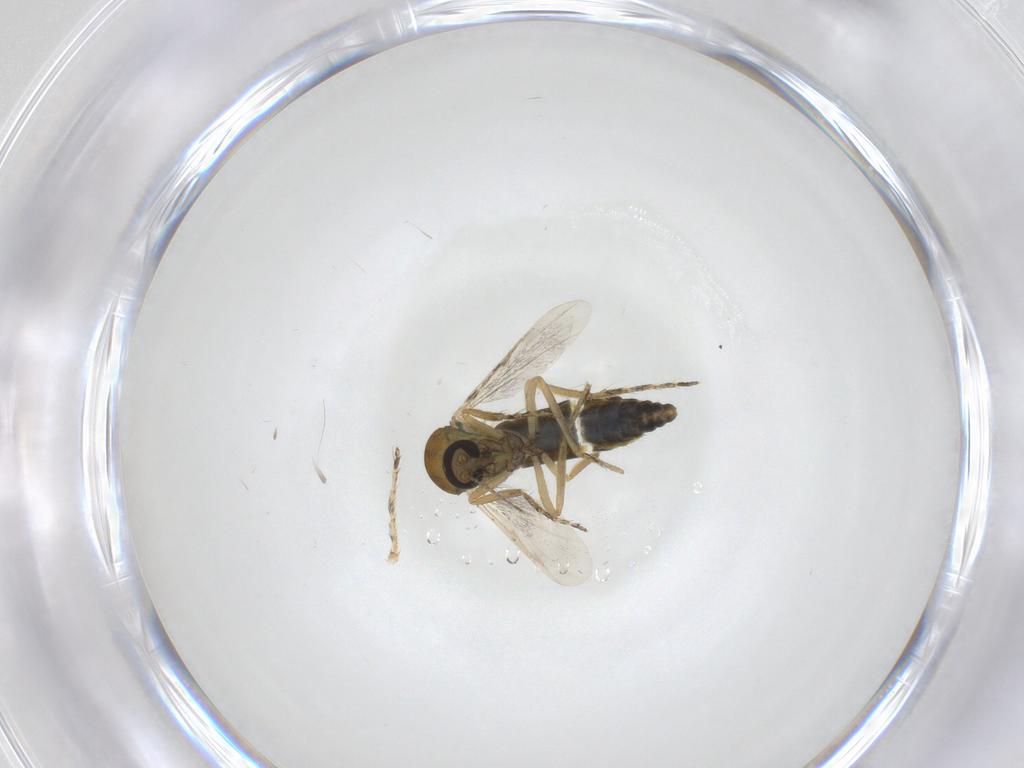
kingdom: Animalia
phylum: Arthropoda
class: Insecta
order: Diptera
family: Ceratopogonidae
